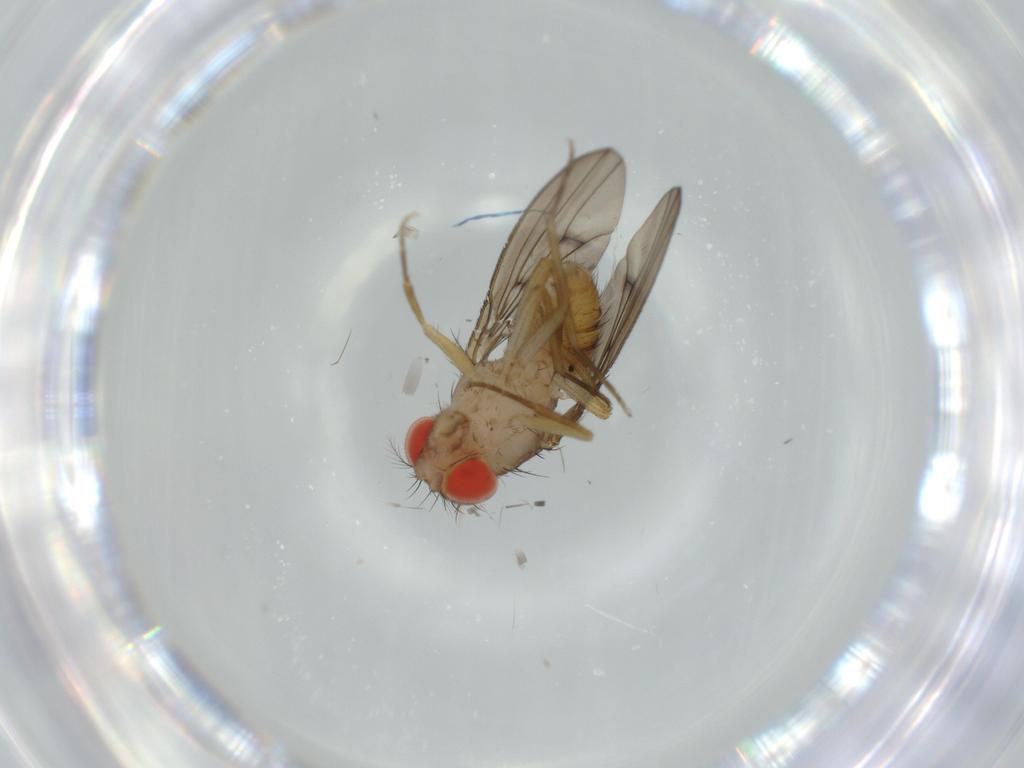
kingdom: Animalia
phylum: Arthropoda
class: Insecta
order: Diptera
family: Drosophilidae
